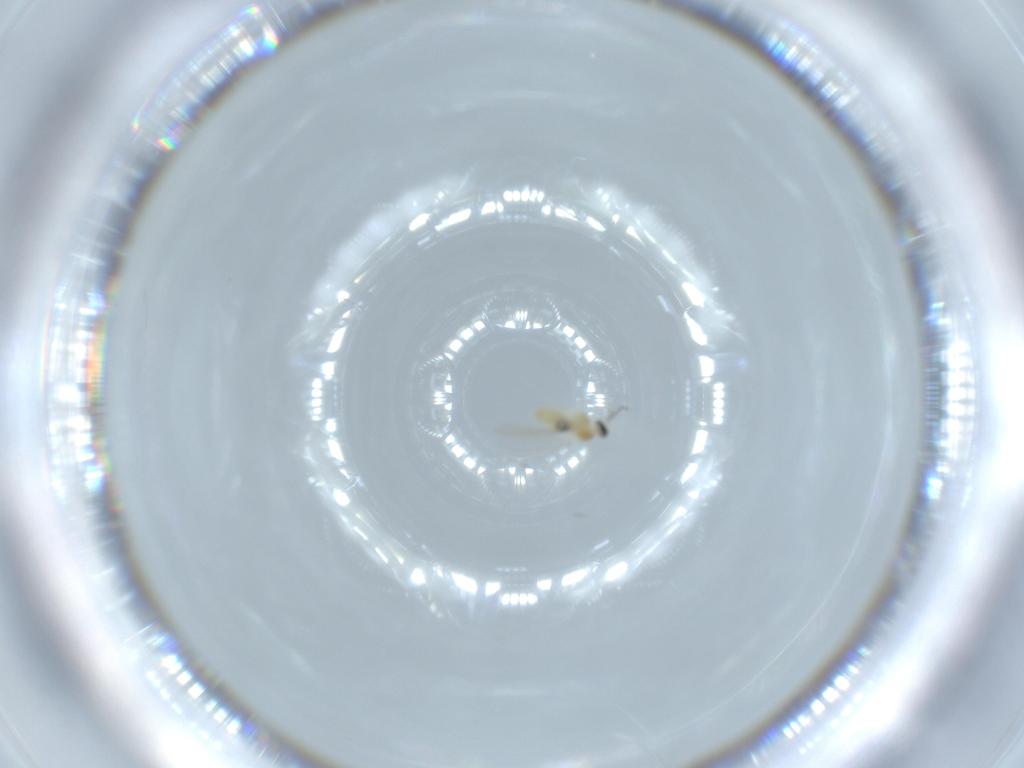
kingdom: Animalia
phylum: Arthropoda
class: Insecta
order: Diptera
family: Cecidomyiidae
